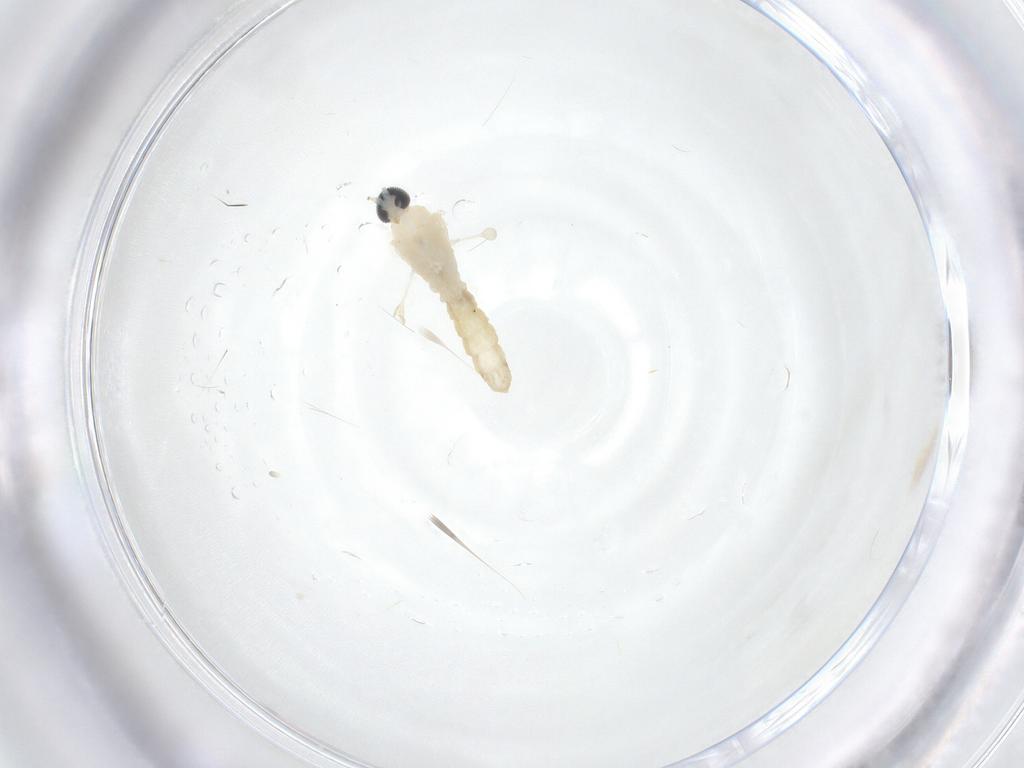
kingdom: Animalia
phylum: Arthropoda
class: Insecta
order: Diptera
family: Cecidomyiidae
